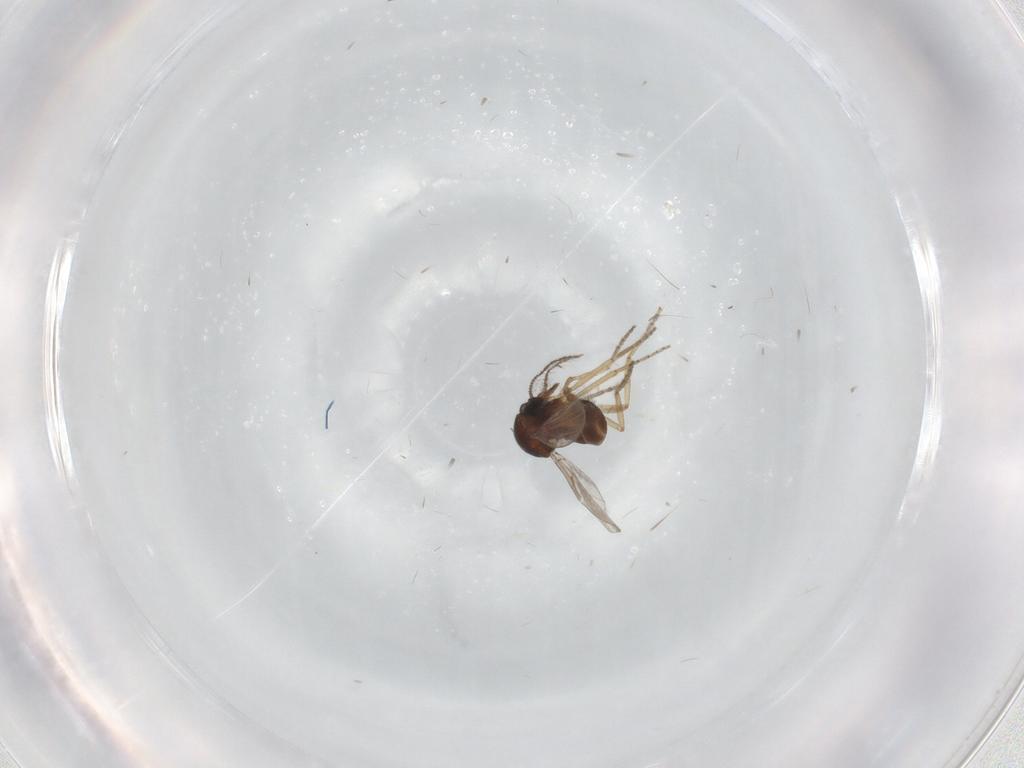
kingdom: Animalia
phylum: Arthropoda
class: Insecta
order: Diptera
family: Ceratopogonidae
